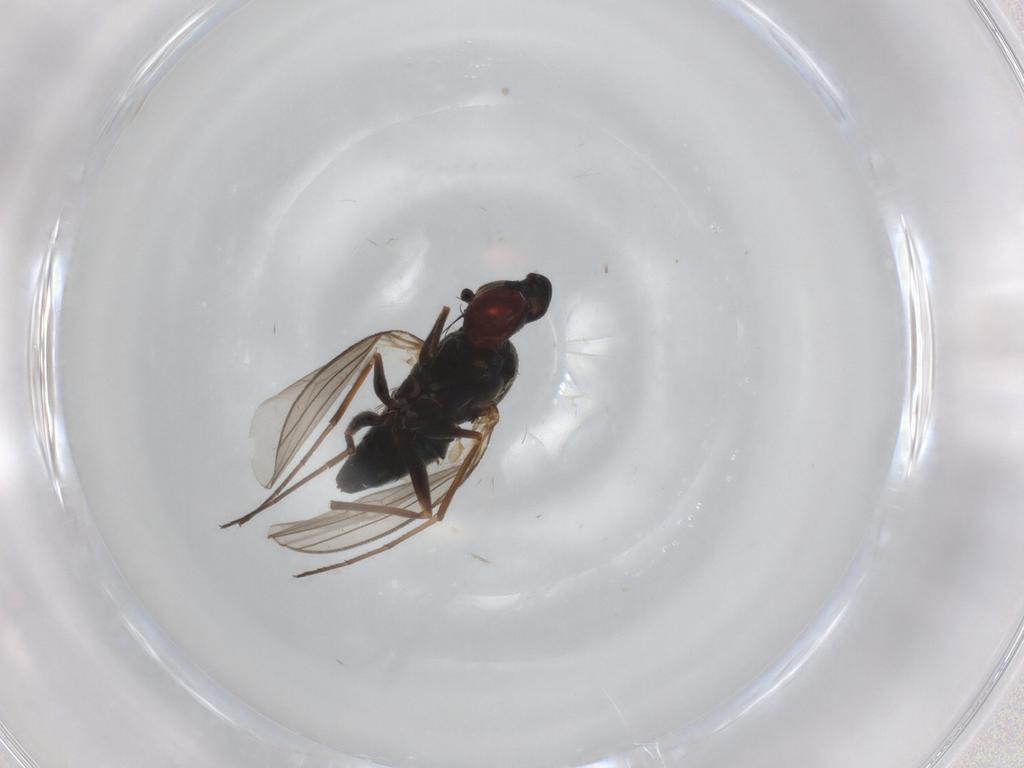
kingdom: Animalia
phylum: Arthropoda
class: Insecta
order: Diptera
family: Dolichopodidae
